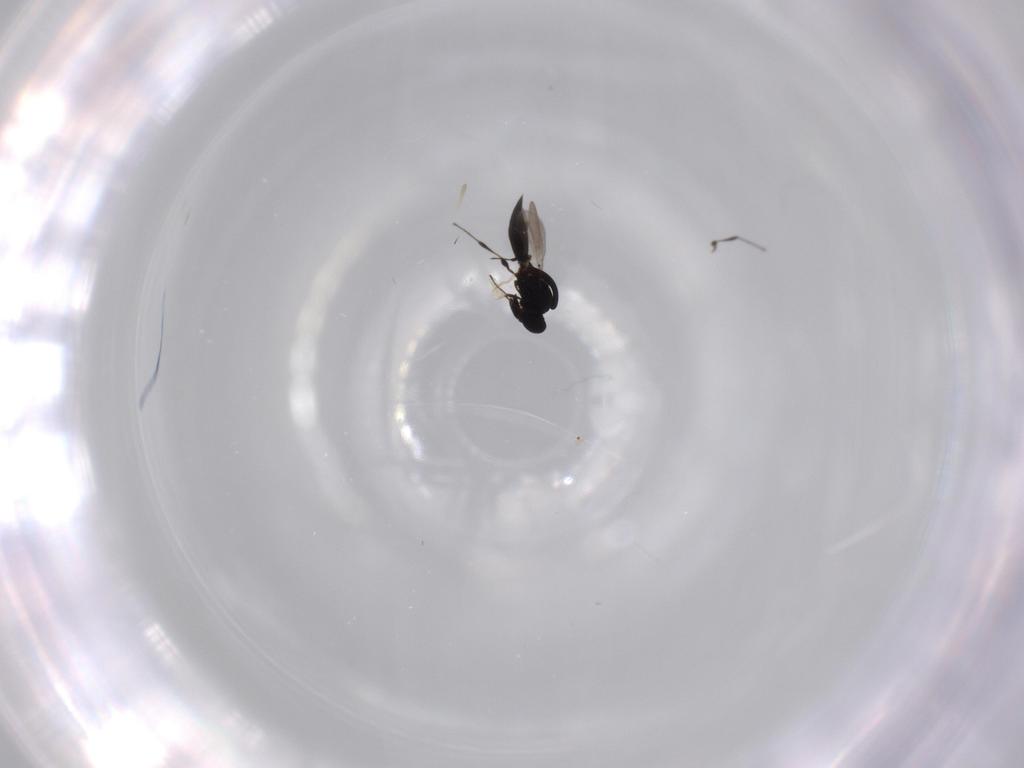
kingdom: Animalia
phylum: Arthropoda
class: Insecta
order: Hymenoptera
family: Platygastridae
